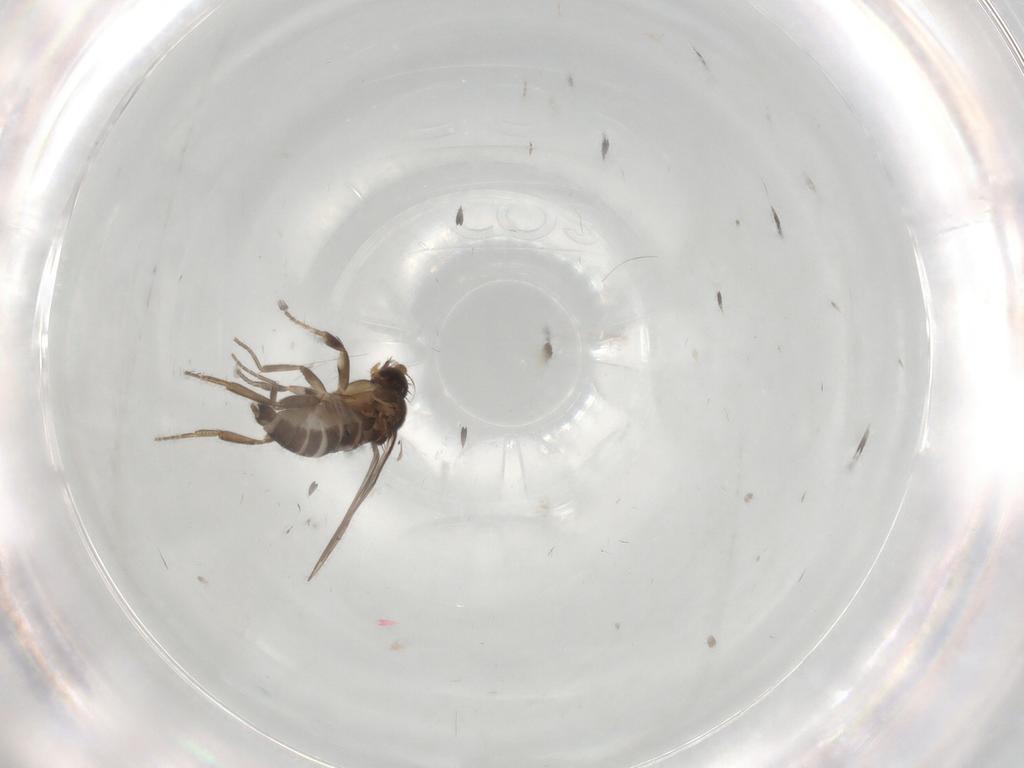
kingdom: Animalia
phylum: Arthropoda
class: Insecta
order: Diptera
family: Phoridae
